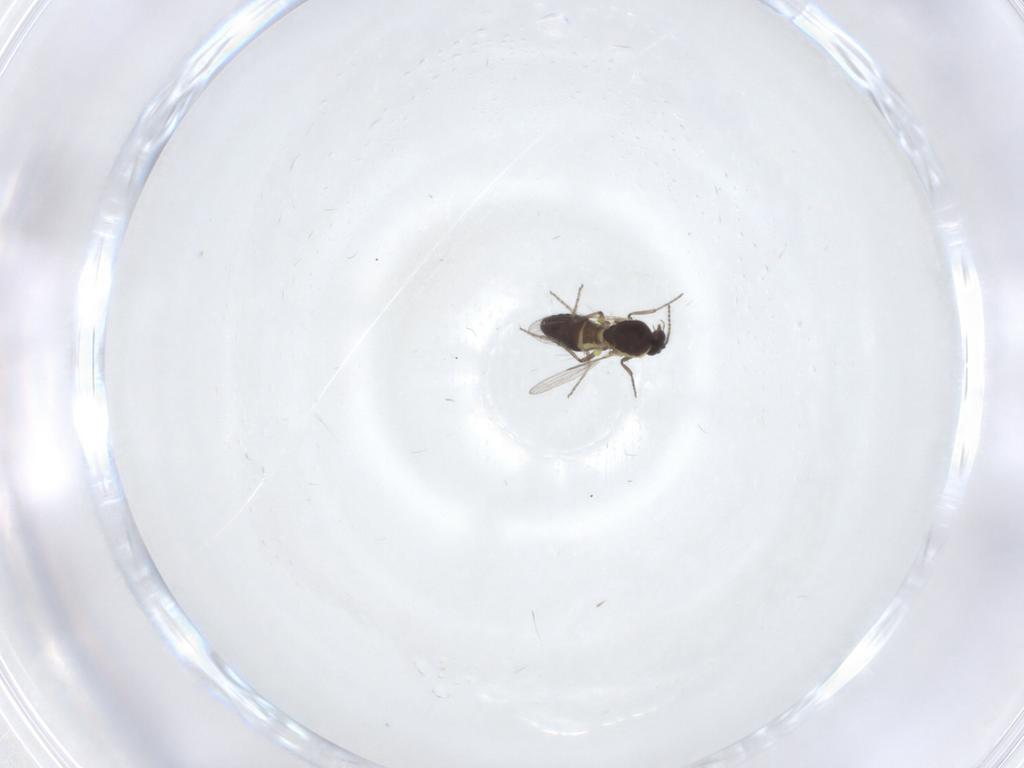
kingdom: Animalia
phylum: Arthropoda
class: Insecta
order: Diptera
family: Ceratopogonidae
